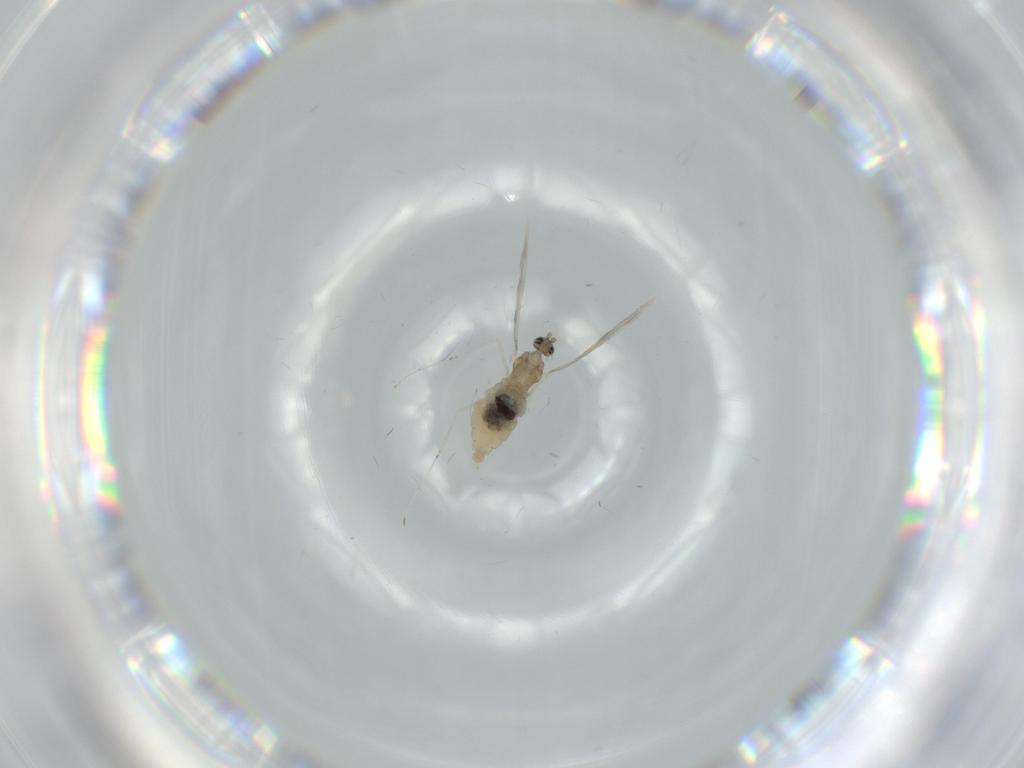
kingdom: Animalia
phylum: Arthropoda
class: Insecta
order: Diptera
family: Cecidomyiidae
